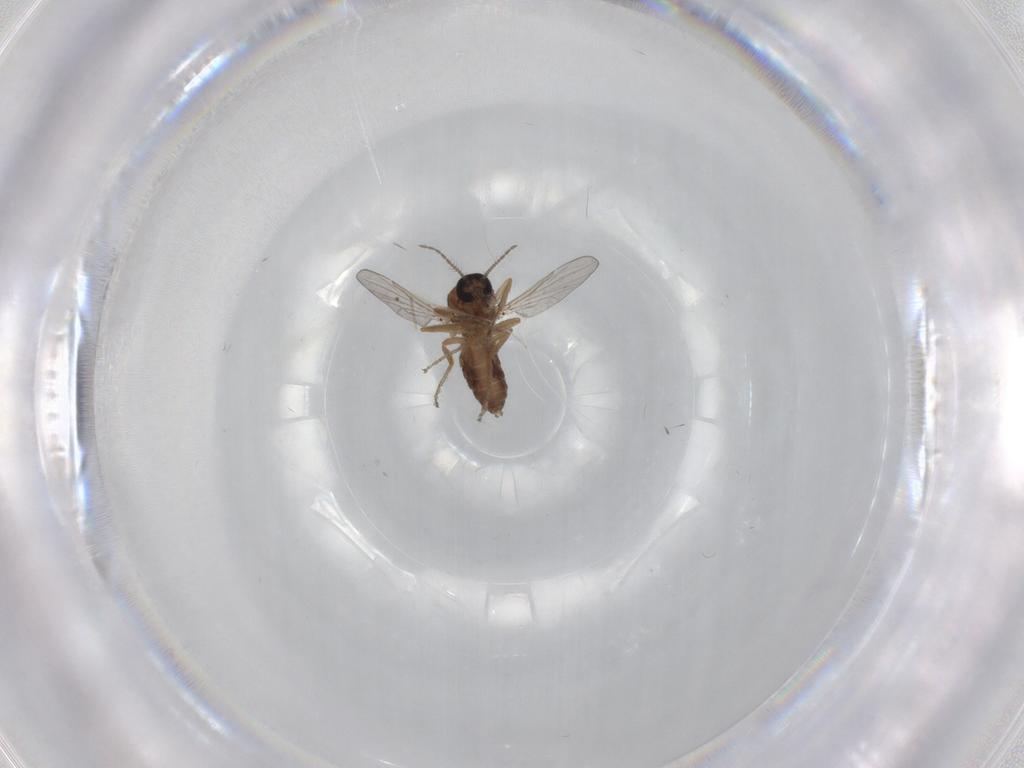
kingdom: Animalia
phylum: Arthropoda
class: Insecta
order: Diptera
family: Ceratopogonidae
